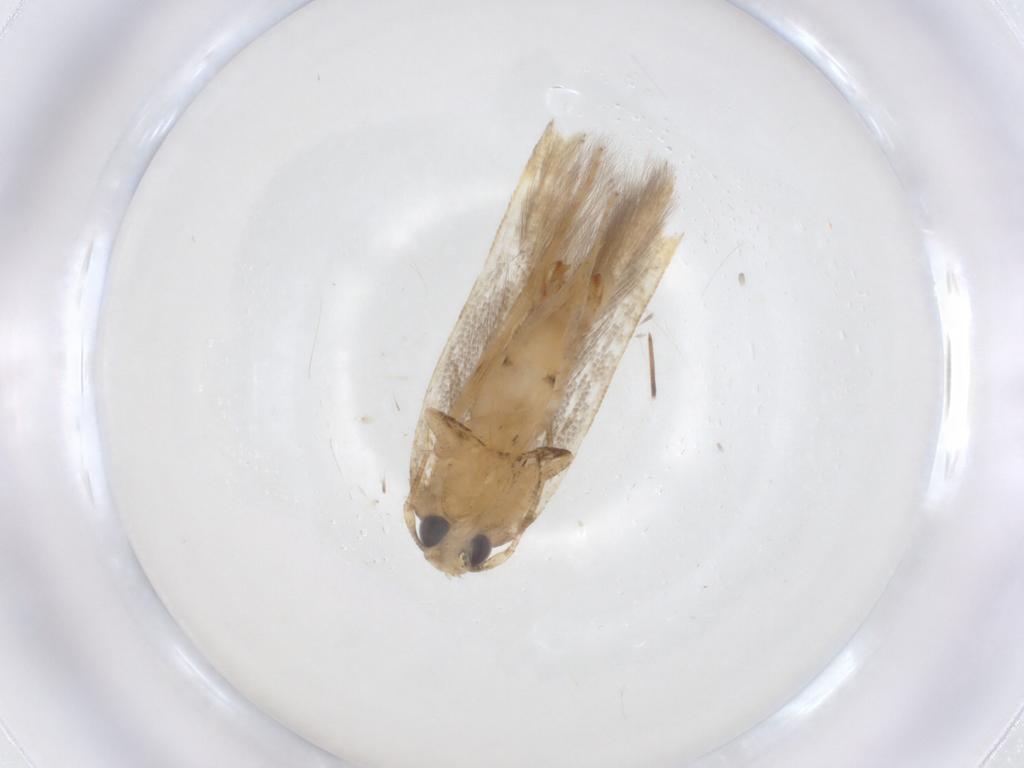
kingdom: Animalia
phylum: Arthropoda
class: Insecta
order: Lepidoptera
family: Cosmopterigidae
